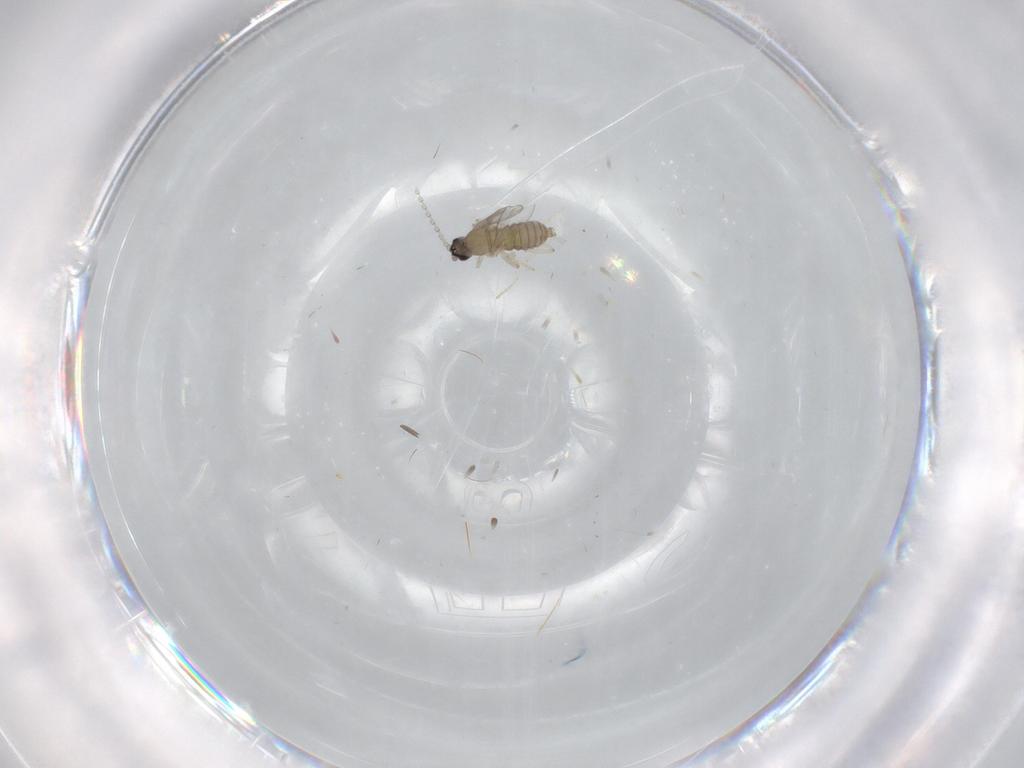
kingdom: Animalia
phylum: Arthropoda
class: Insecta
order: Diptera
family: Cecidomyiidae
